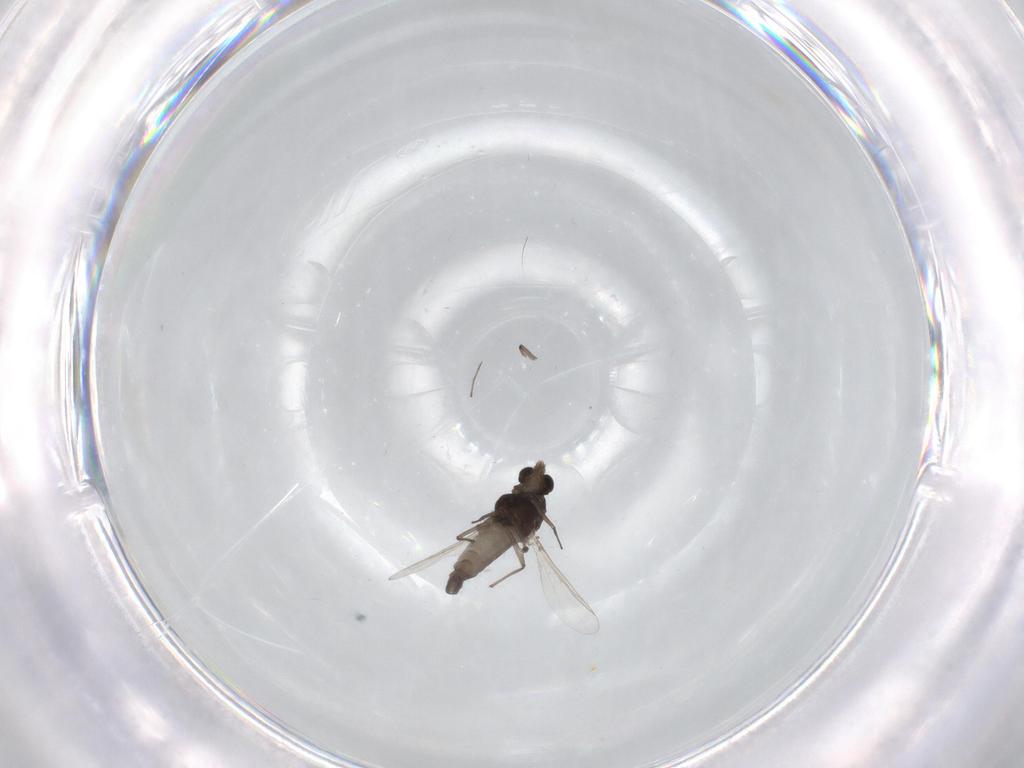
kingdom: Animalia
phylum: Arthropoda
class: Insecta
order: Diptera
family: Chironomidae
